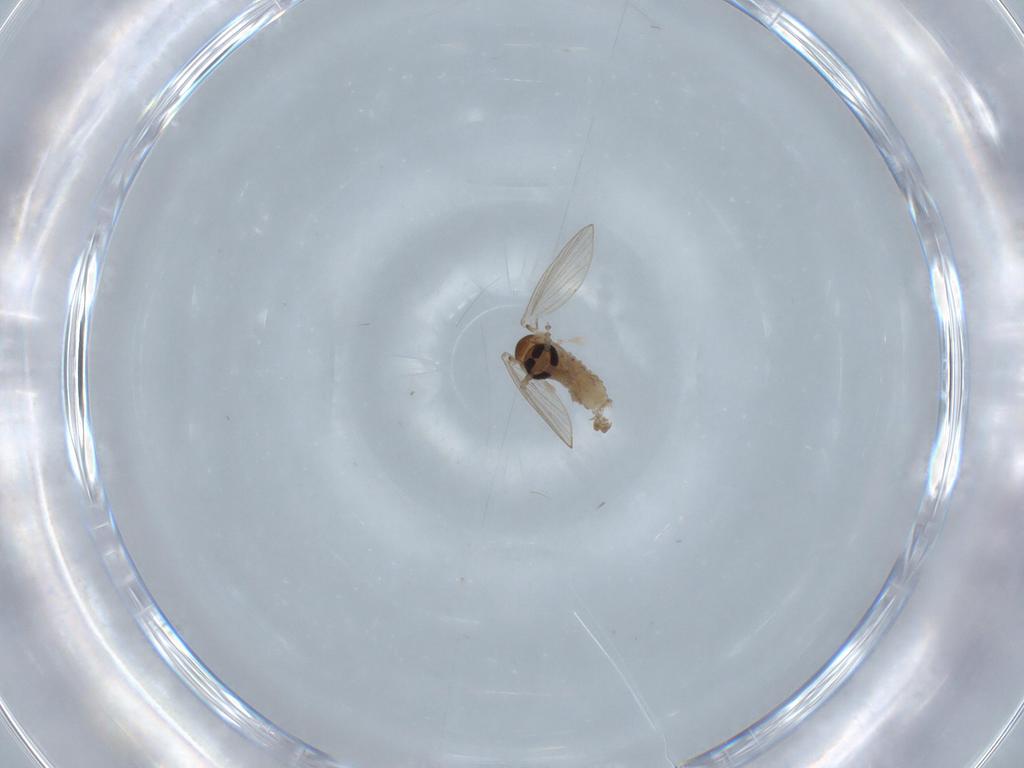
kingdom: Animalia
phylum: Arthropoda
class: Insecta
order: Diptera
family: Psychodidae
